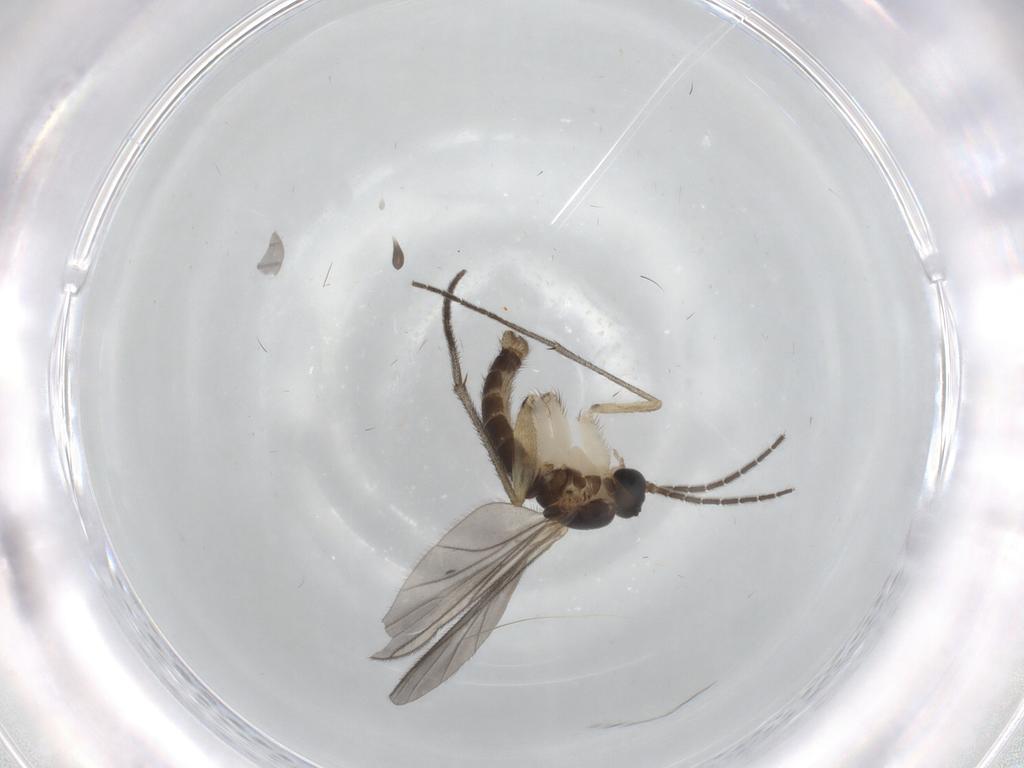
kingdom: Animalia
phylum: Arthropoda
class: Insecta
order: Diptera
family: Sciaridae
